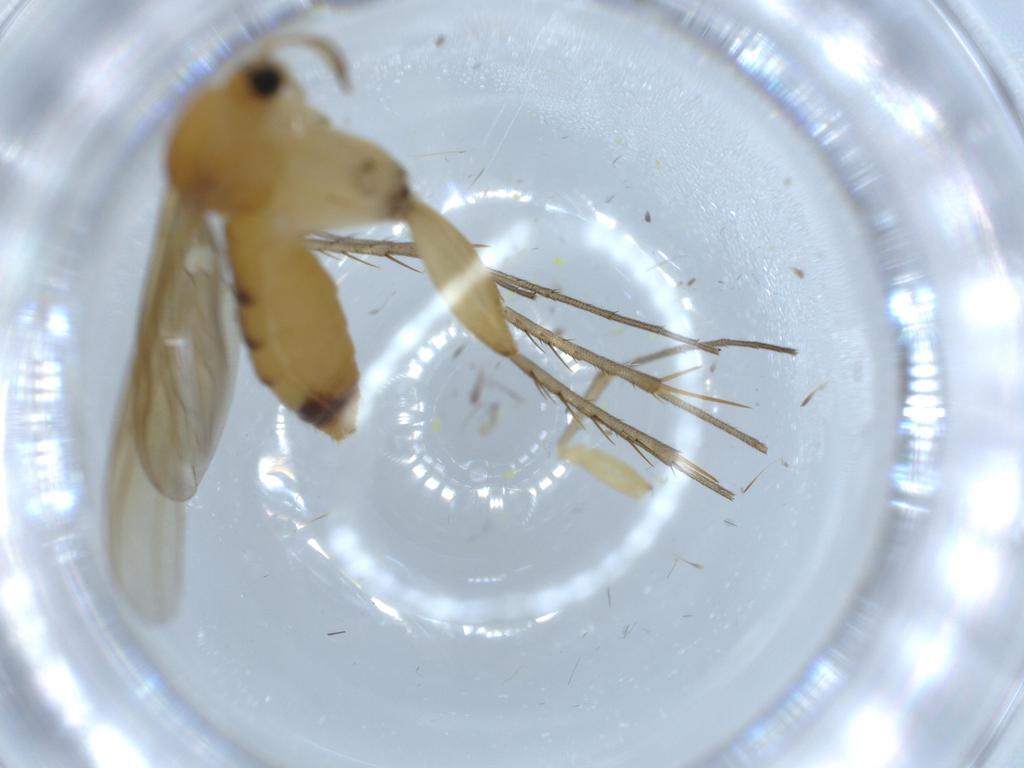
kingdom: Animalia
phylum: Arthropoda
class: Insecta
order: Diptera
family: Mycetophilidae
